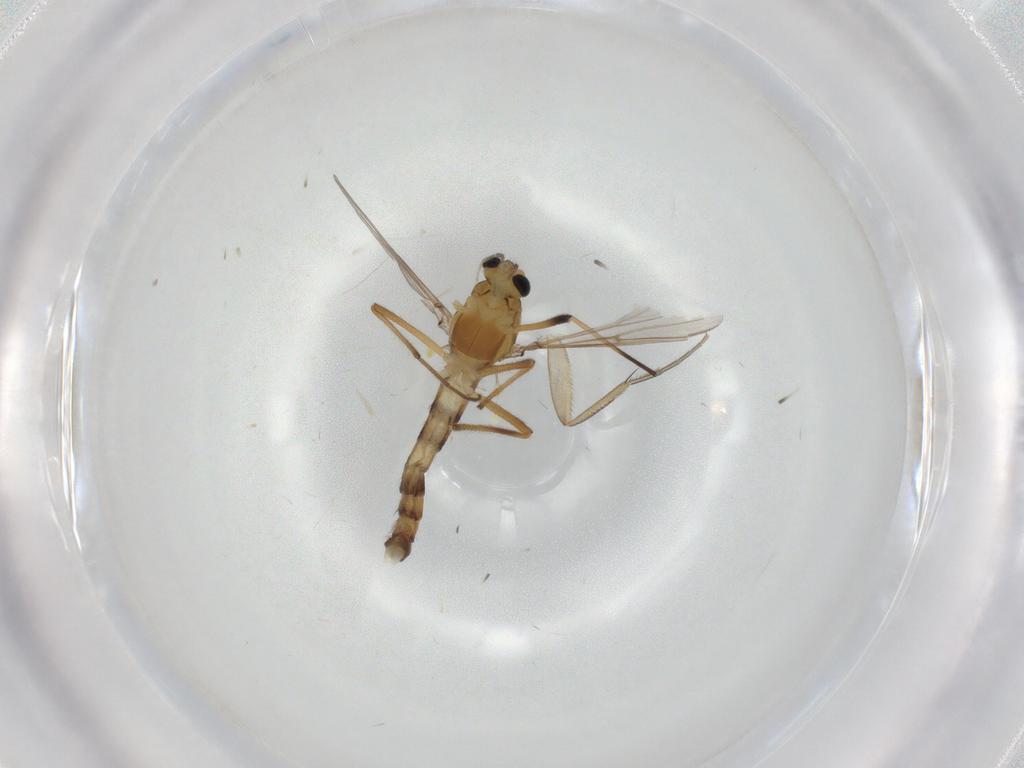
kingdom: Animalia
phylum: Arthropoda
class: Insecta
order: Diptera
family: Chironomidae
